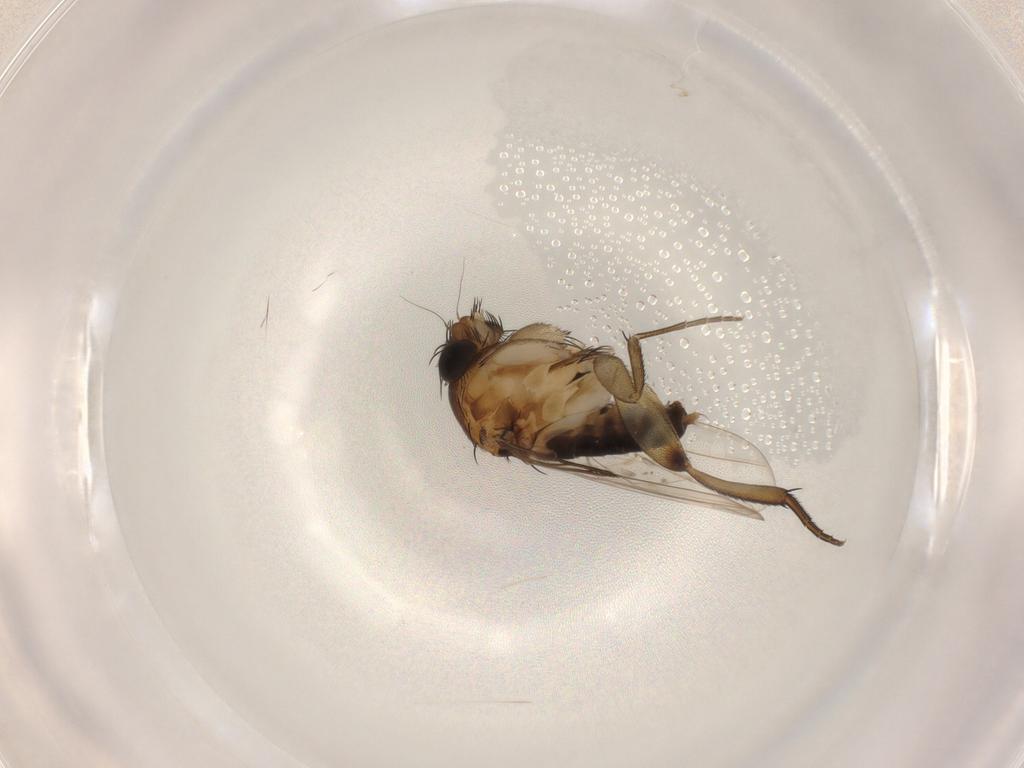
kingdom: Animalia
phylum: Arthropoda
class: Insecta
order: Diptera
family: Phoridae
